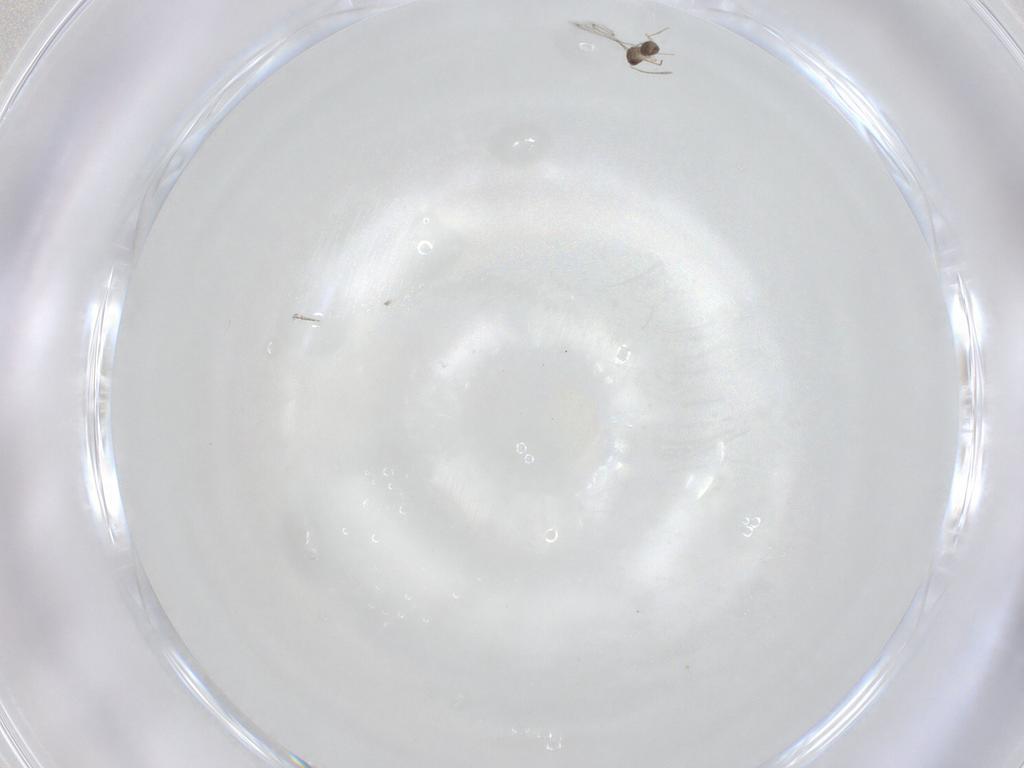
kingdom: Animalia
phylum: Arthropoda
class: Insecta
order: Hymenoptera
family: Mymaridae
